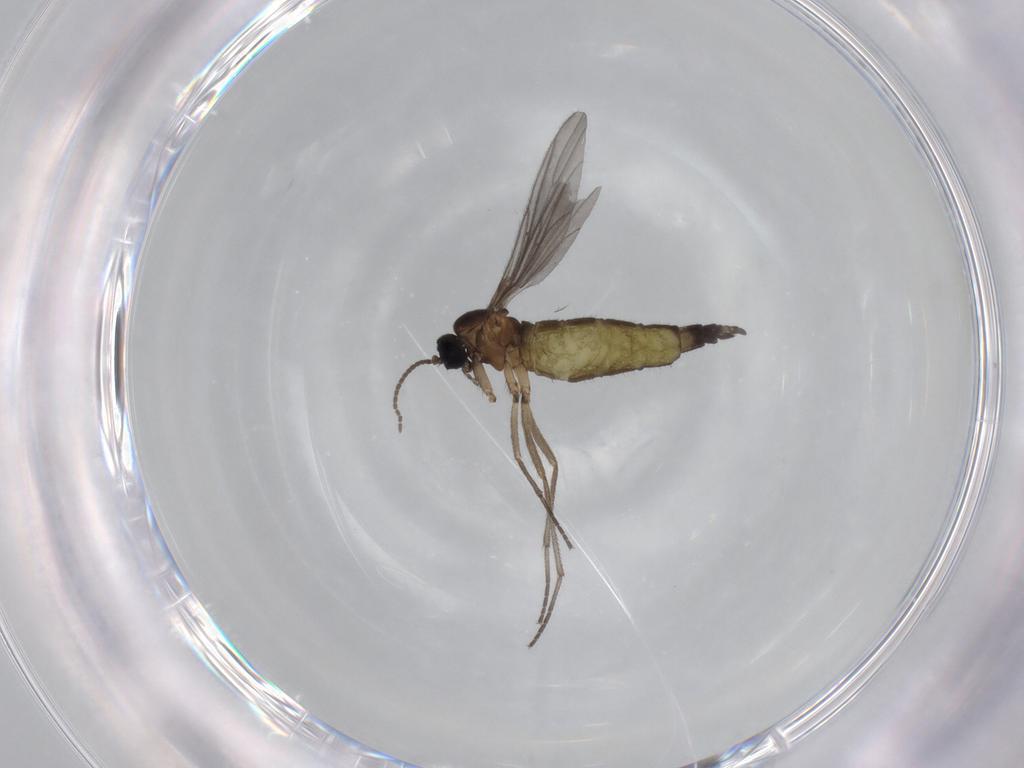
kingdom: Animalia
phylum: Arthropoda
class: Insecta
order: Diptera
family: Sciaridae
